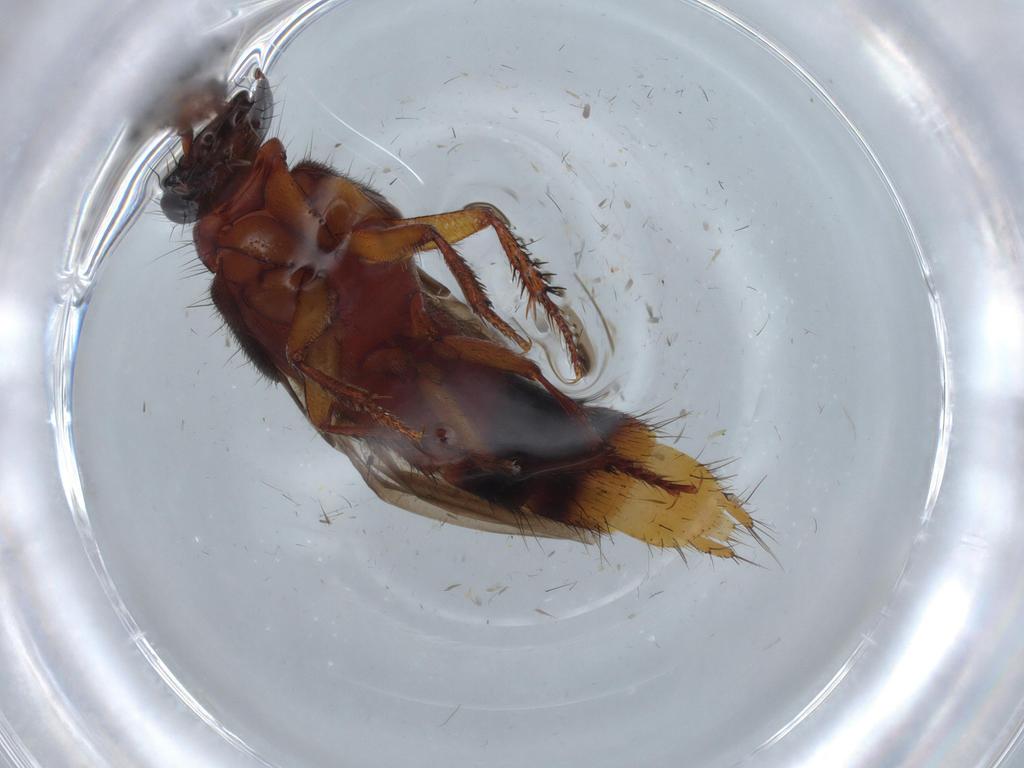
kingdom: Animalia
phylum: Arthropoda
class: Insecta
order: Coleoptera
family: Staphylinidae
